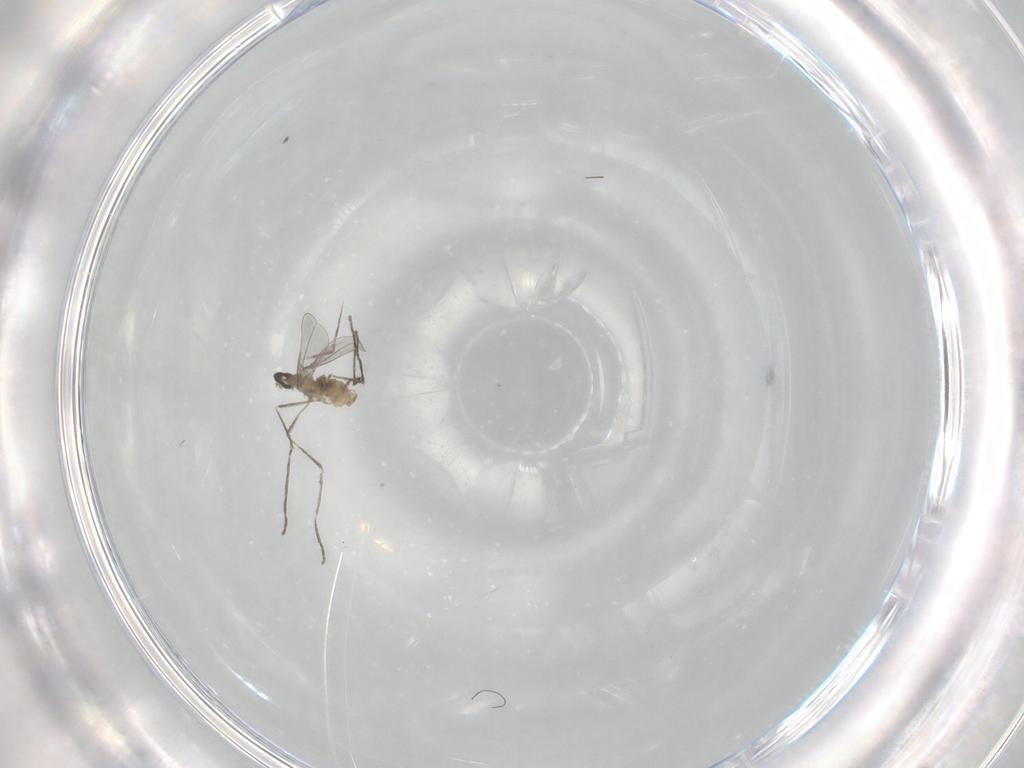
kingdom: Animalia
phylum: Arthropoda
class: Insecta
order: Diptera
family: Cecidomyiidae
